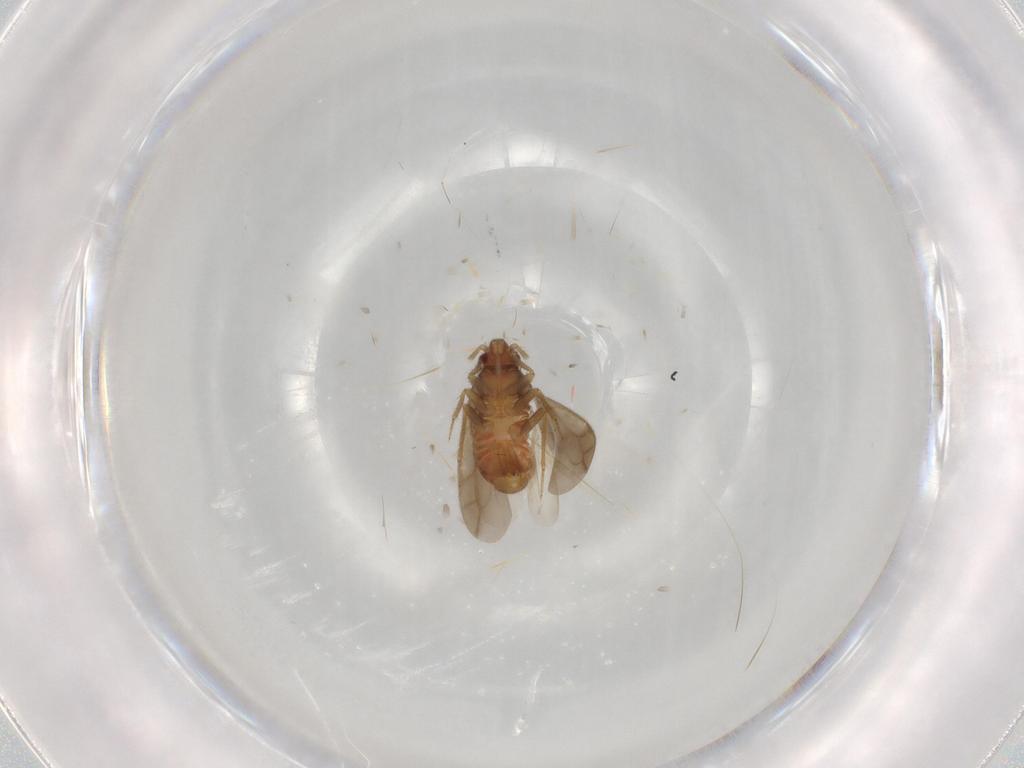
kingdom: Animalia
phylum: Arthropoda
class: Insecta
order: Hemiptera
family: Ceratocombidae
